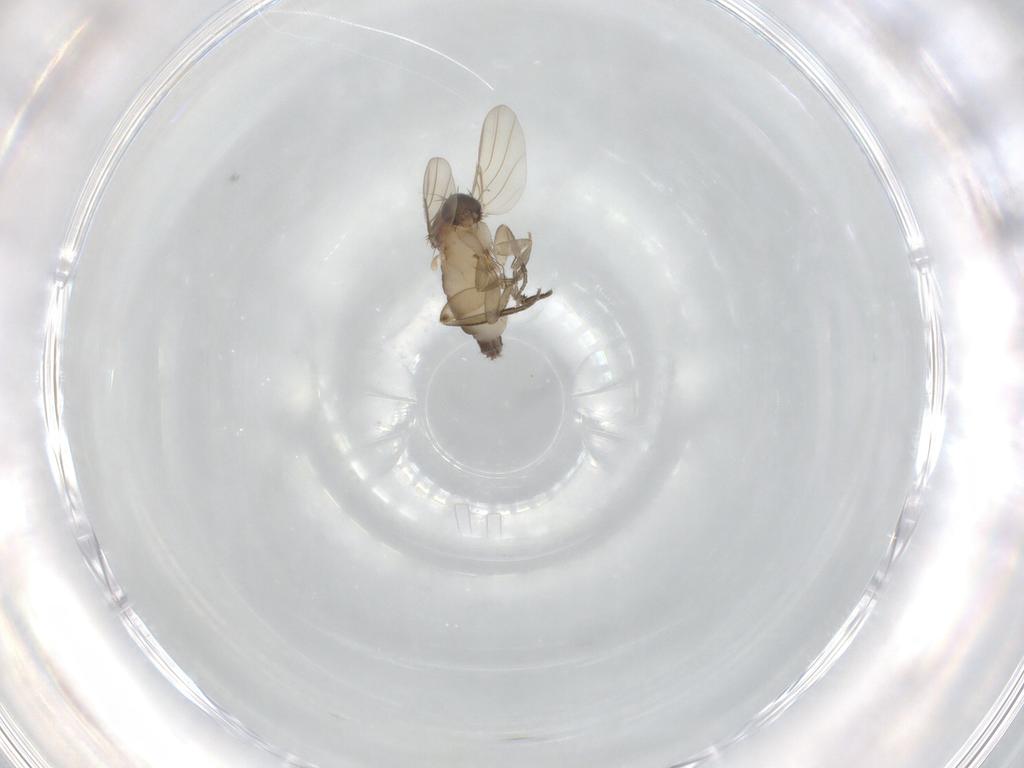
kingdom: Animalia
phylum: Arthropoda
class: Insecta
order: Diptera
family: Phoridae
